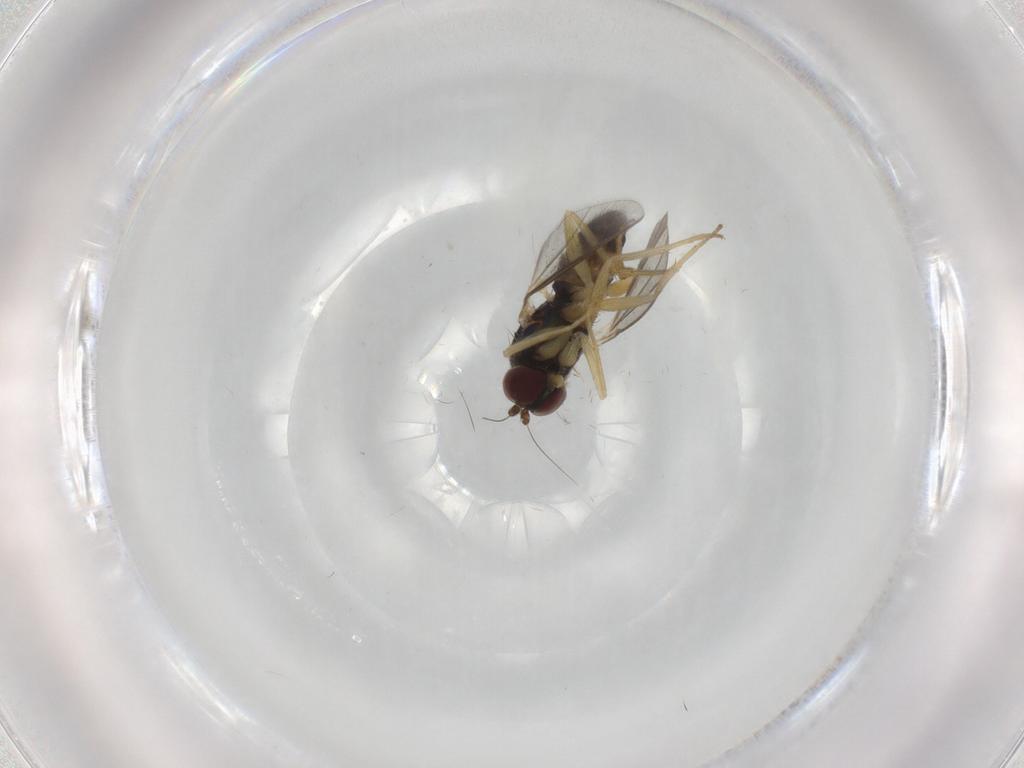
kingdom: Animalia
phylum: Arthropoda
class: Insecta
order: Diptera
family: Dolichopodidae
